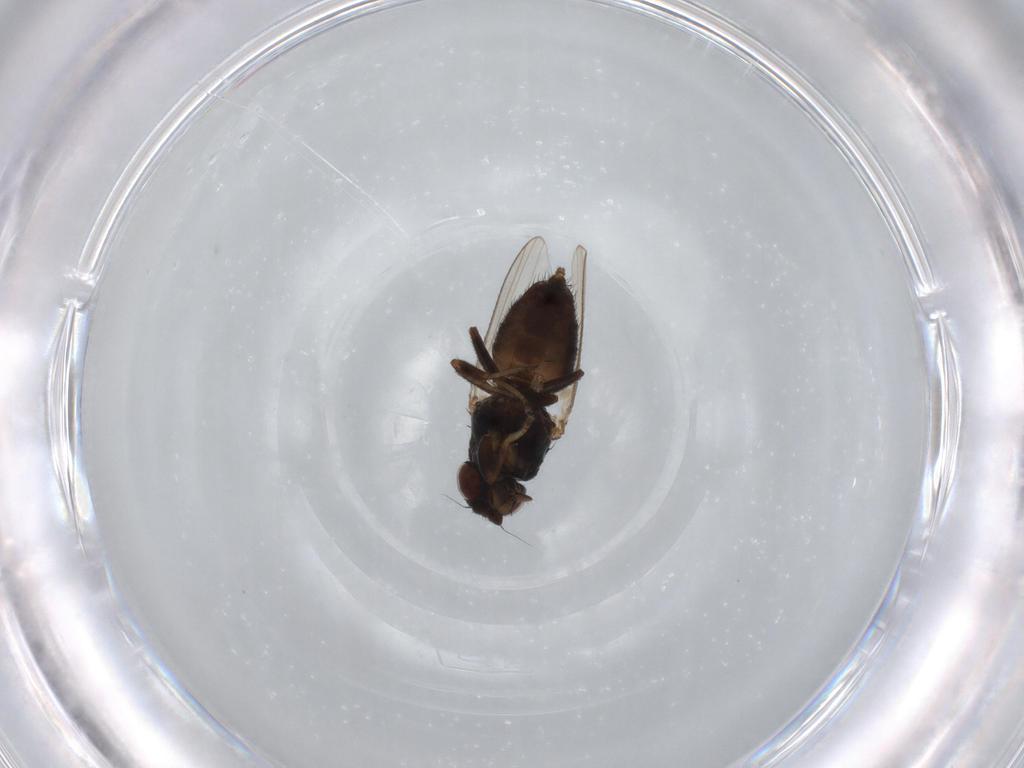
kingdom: Animalia
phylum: Arthropoda
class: Insecta
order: Diptera
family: Milichiidae
